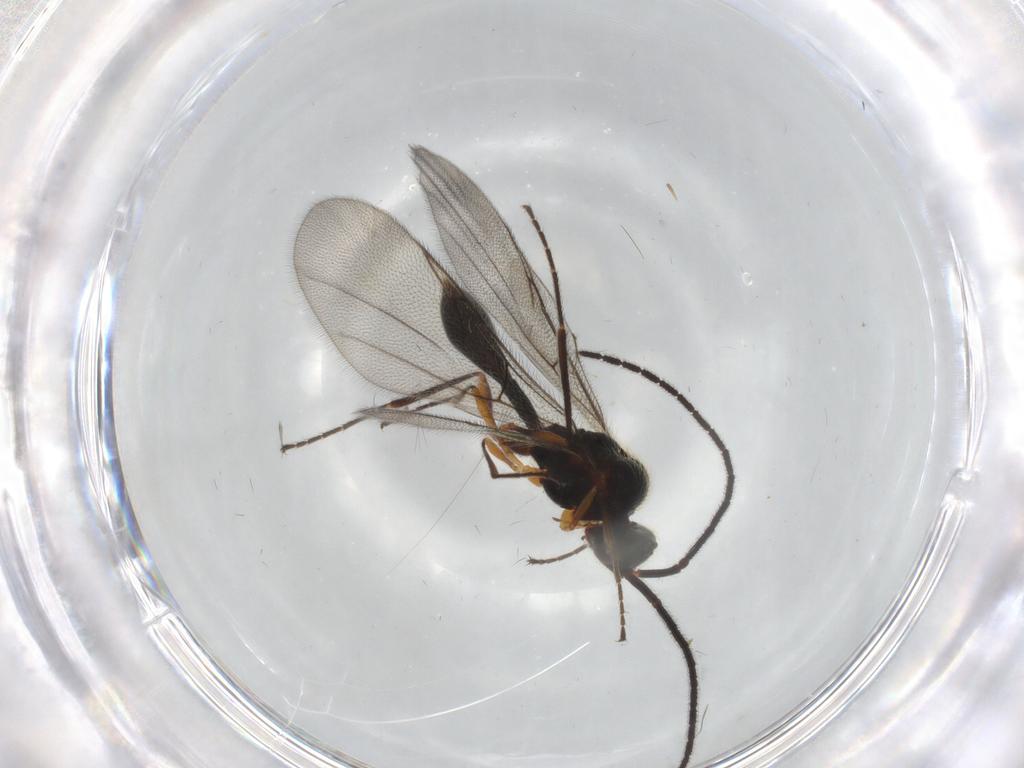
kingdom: Animalia
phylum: Arthropoda
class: Insecta
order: Hymenoptera
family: Diapriidae
